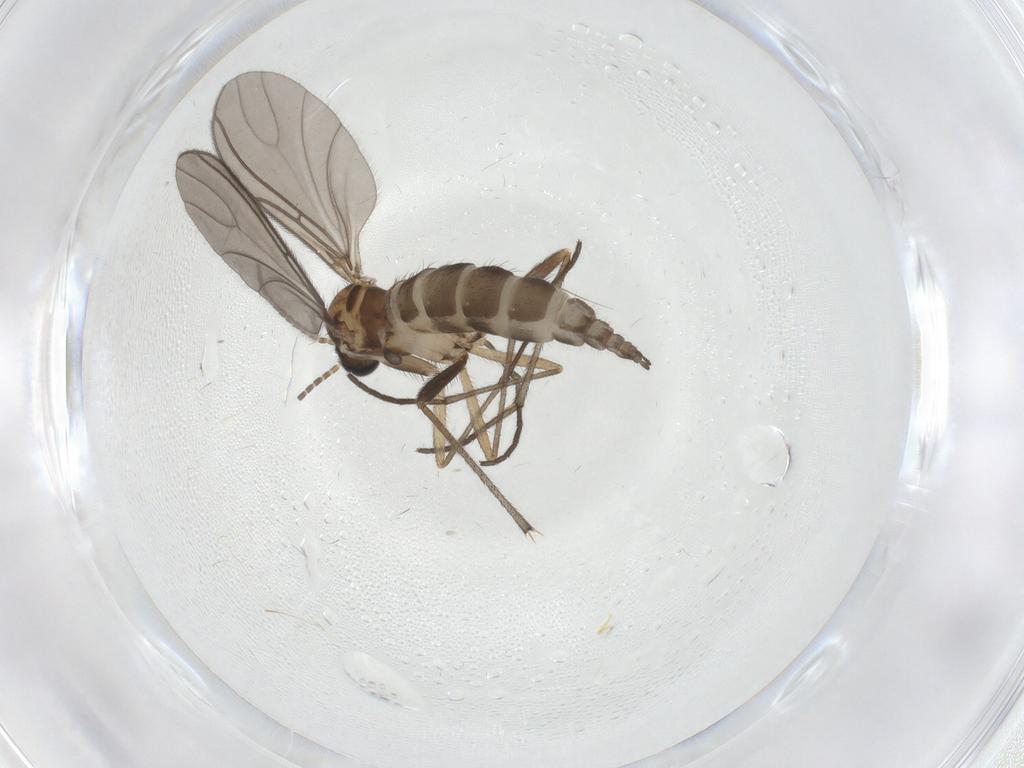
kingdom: Animalia
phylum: Arthropoda
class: Insecta
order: Diptera
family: Sciaridae
